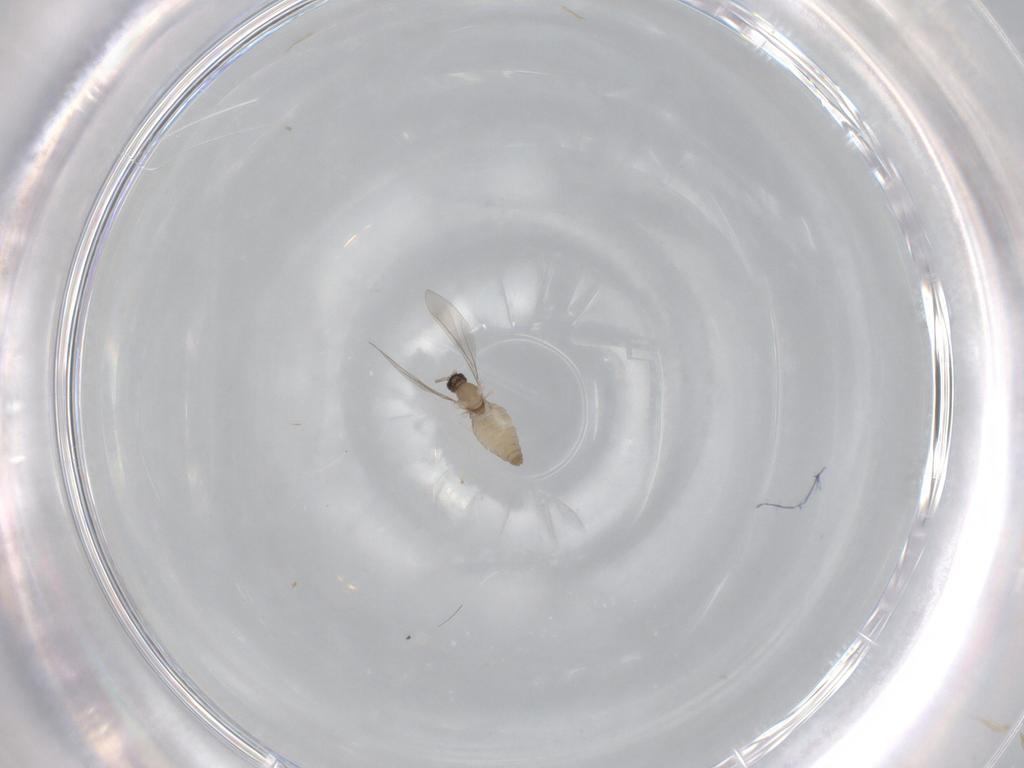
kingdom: Animalia
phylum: Arthropoda
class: Insecta
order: Diptera
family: Cecidomyiidae
